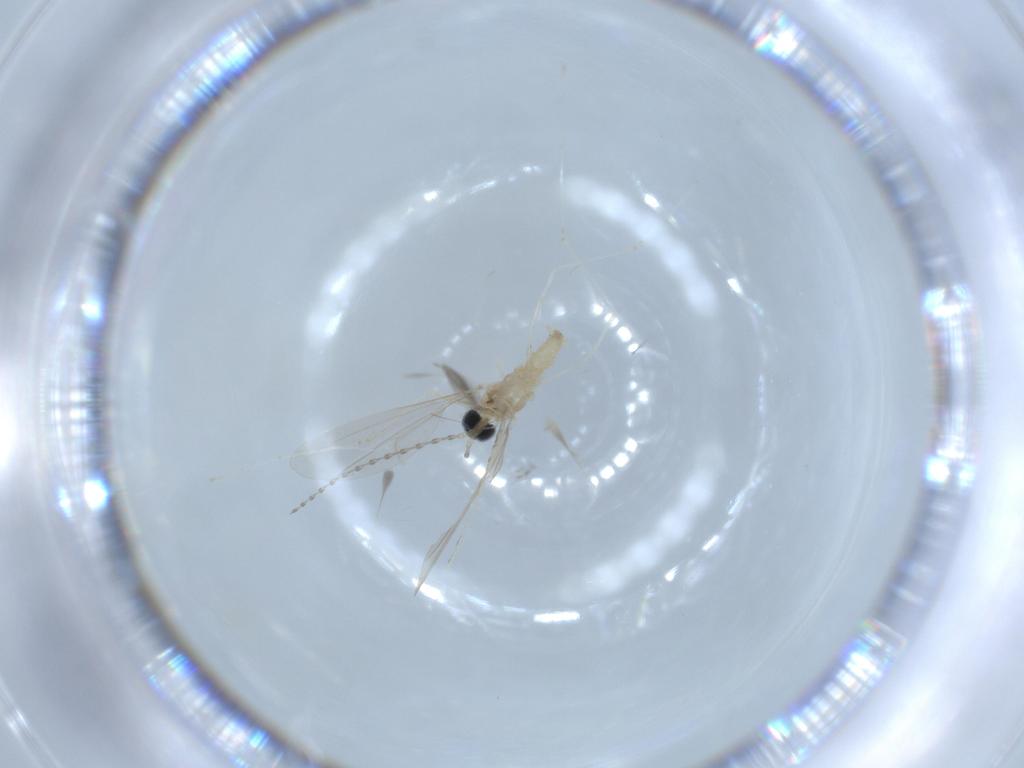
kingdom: Animalia
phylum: Arthropoda
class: Insecta
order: Diptera
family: Cecidomyiidae
